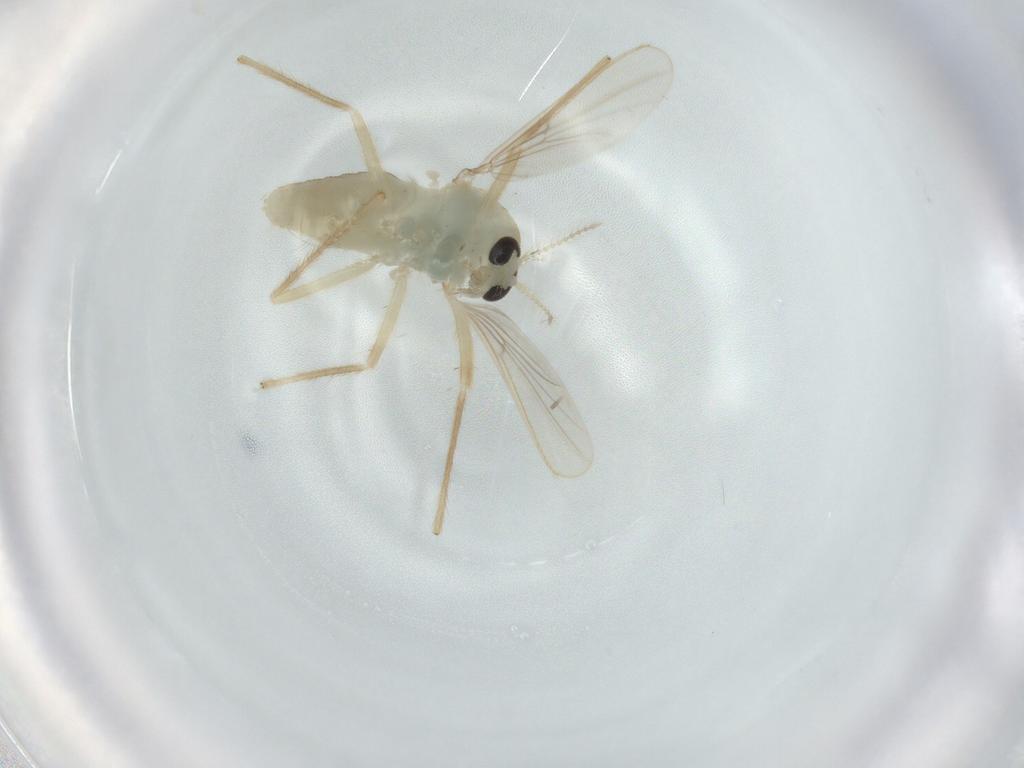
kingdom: Animalia
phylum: Arthropoda
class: Insecta
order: Diptera
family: Chironomidae
